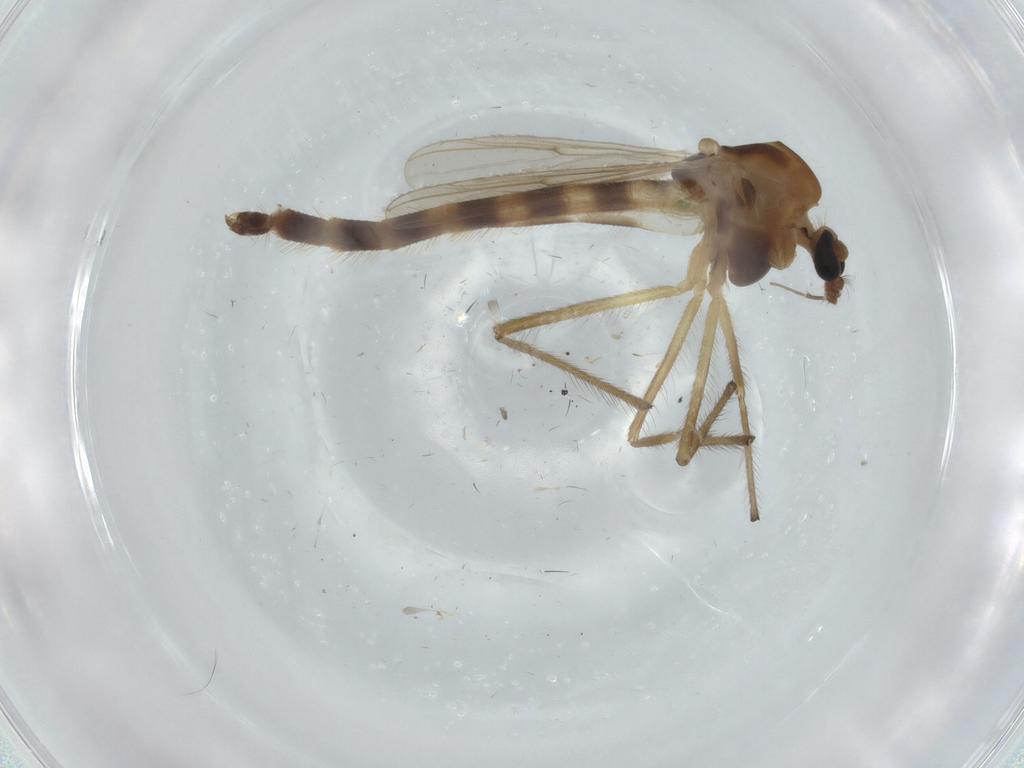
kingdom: Animalia
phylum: Arthropoda
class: Insecta
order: Diptera
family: Chironomidae
